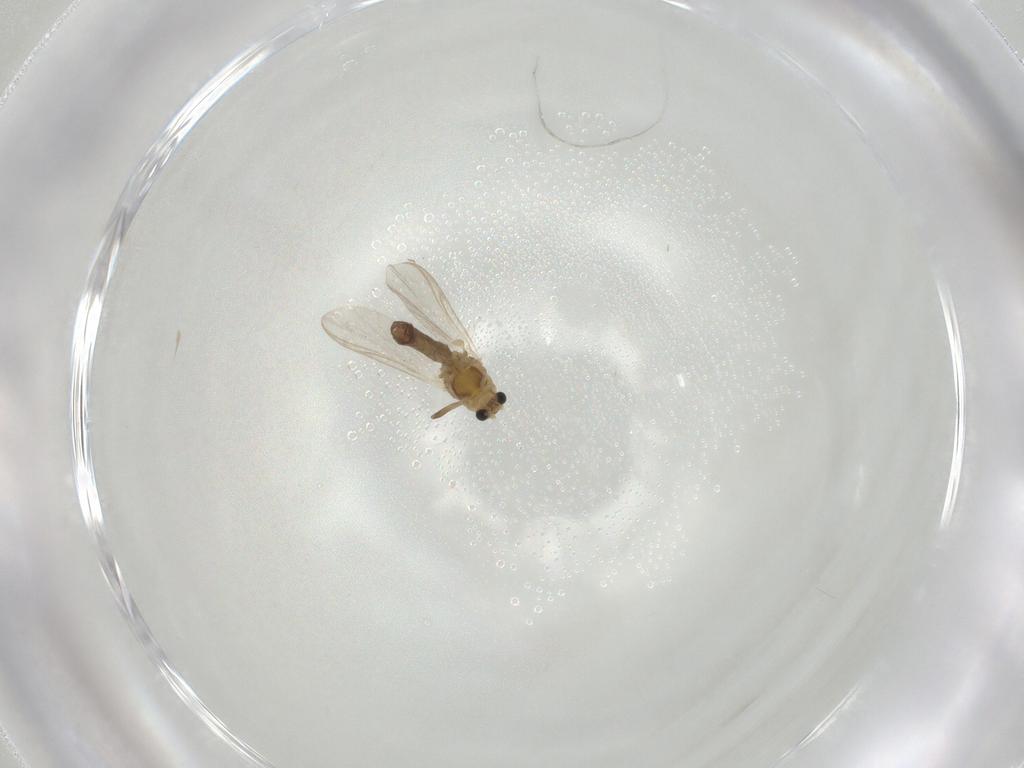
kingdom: Animalia
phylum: Arthropoda
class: Insecta
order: Diptera
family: Chironomidae
